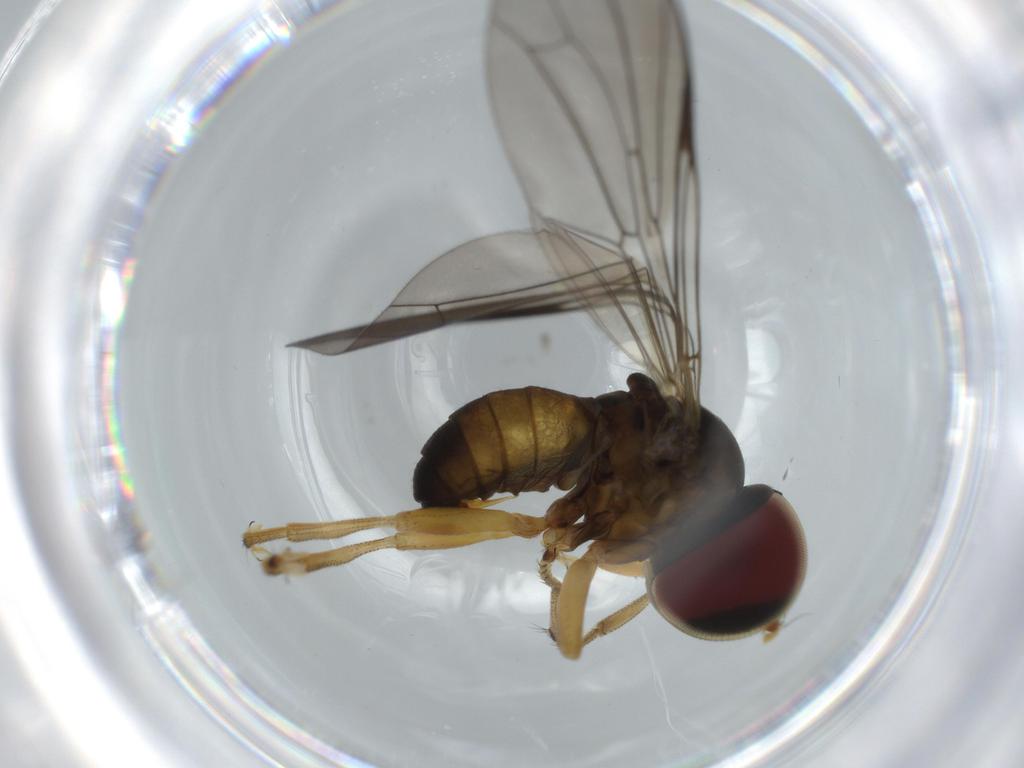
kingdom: Animalia
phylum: Arthropoda
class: Insecta
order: Diptera
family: Pipunculidae
